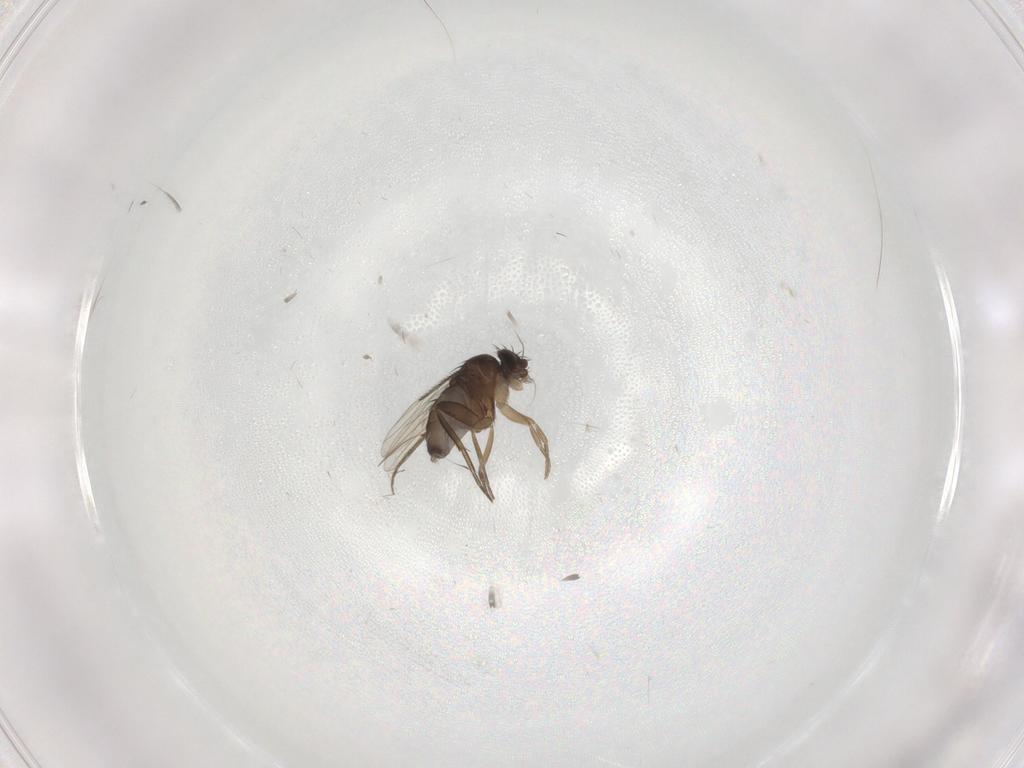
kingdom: Animalia
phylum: Arthropoda
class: Insecta
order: Diptera
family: Phoridae
